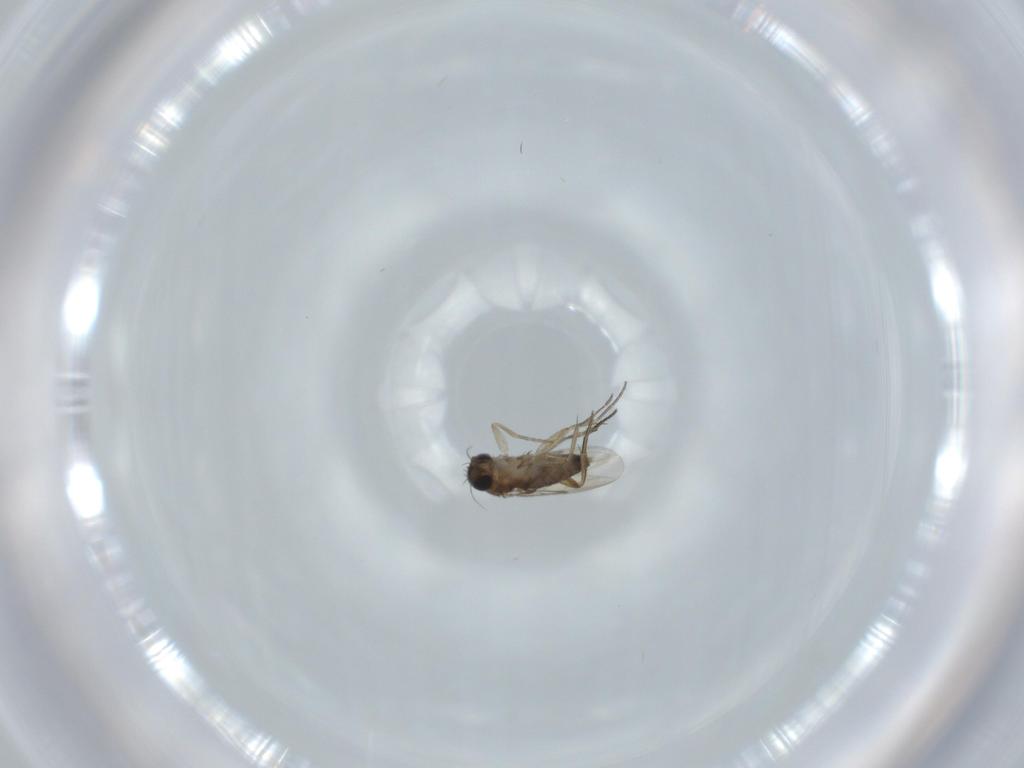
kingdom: Animalia
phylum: Arthropoda
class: Insecta
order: Diptera
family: Phoridae
